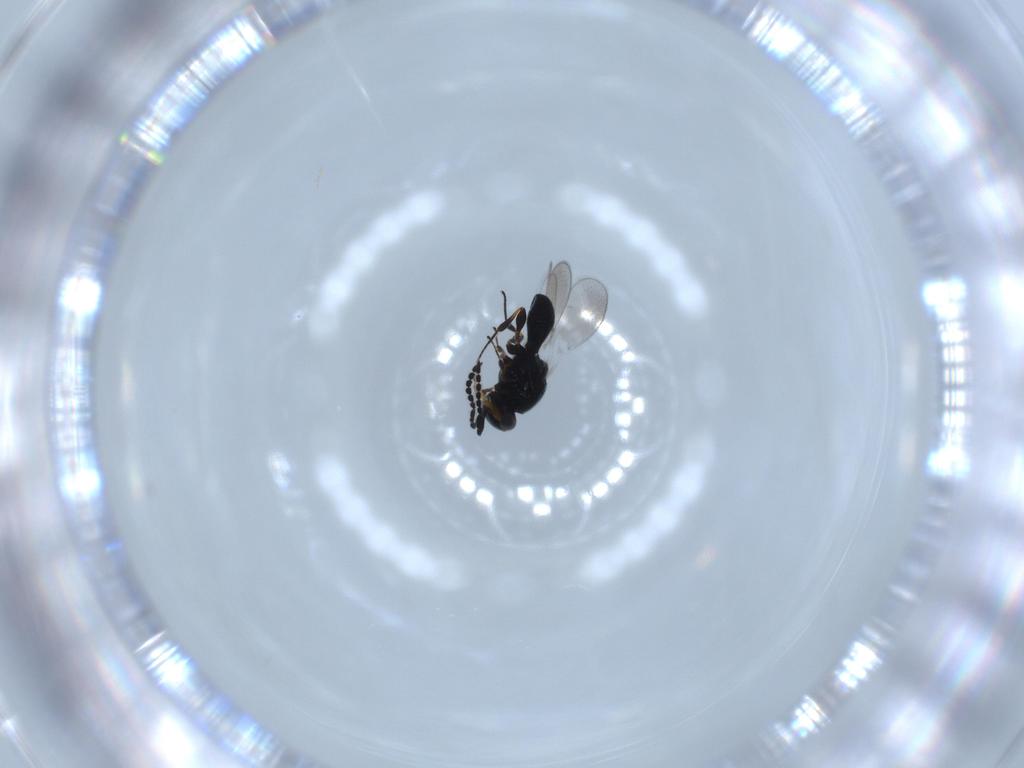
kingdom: Animalia
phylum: Arthropoda
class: Insecta
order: Hymenoptera
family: Platygastridae
